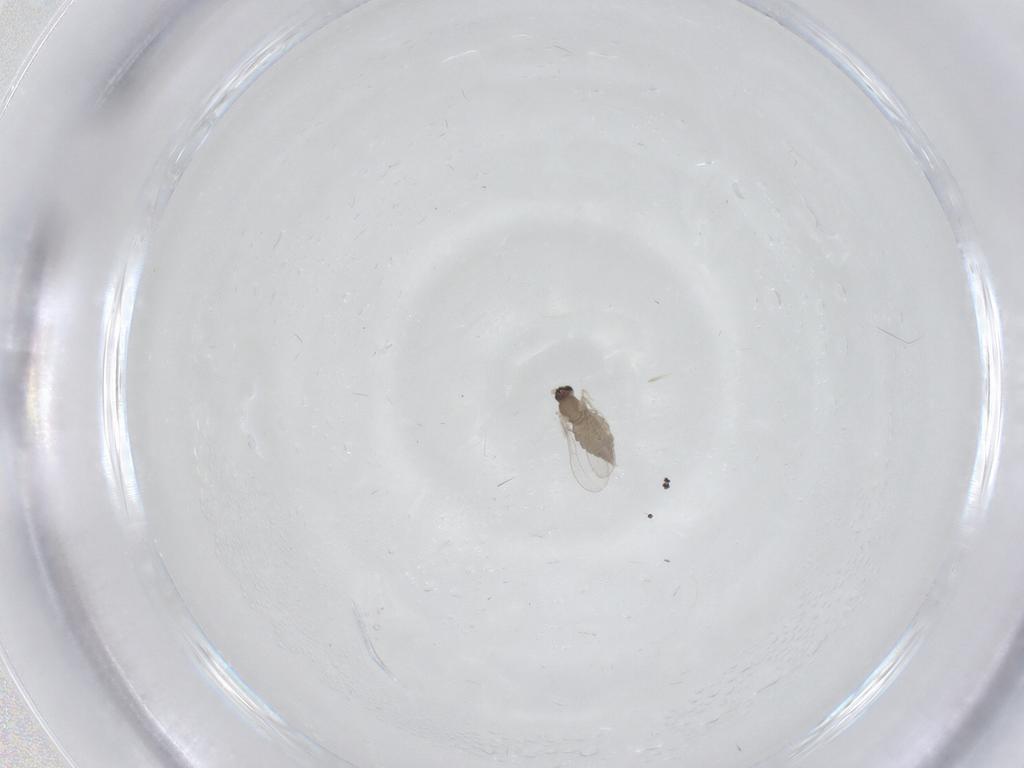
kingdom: Animalia
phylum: Arthropoda
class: Insecta
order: Diptera
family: Cecidomyiidae
